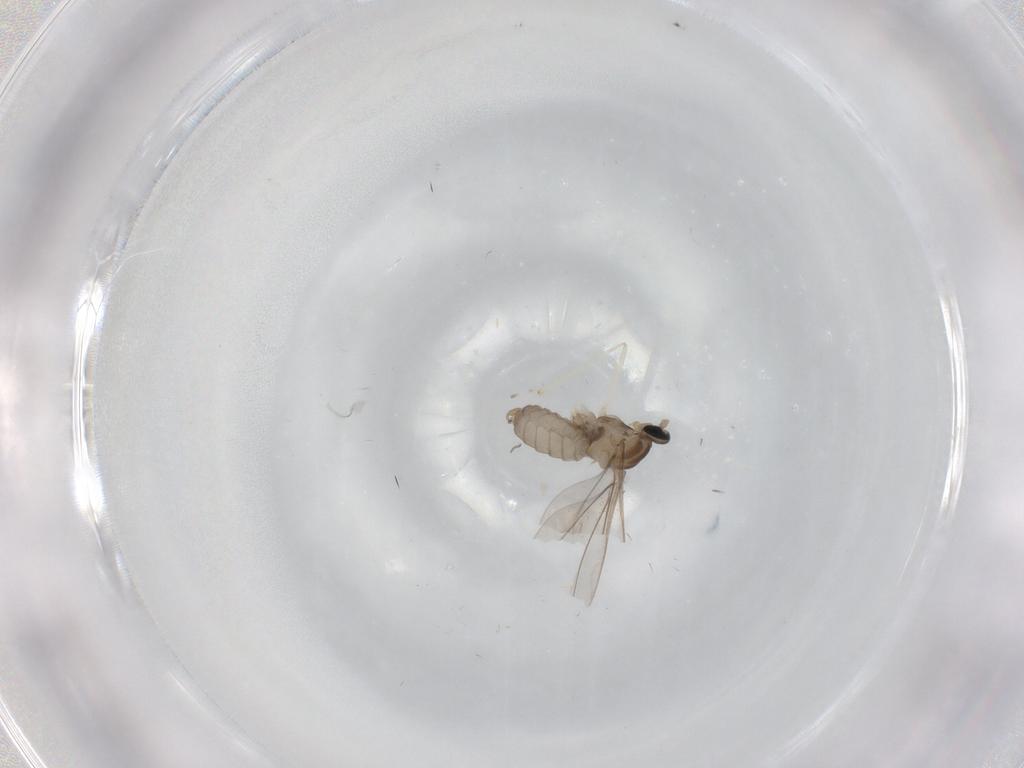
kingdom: Animalia
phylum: Arthropoda
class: Insecta
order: Diptera
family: Cecidomyiidae
